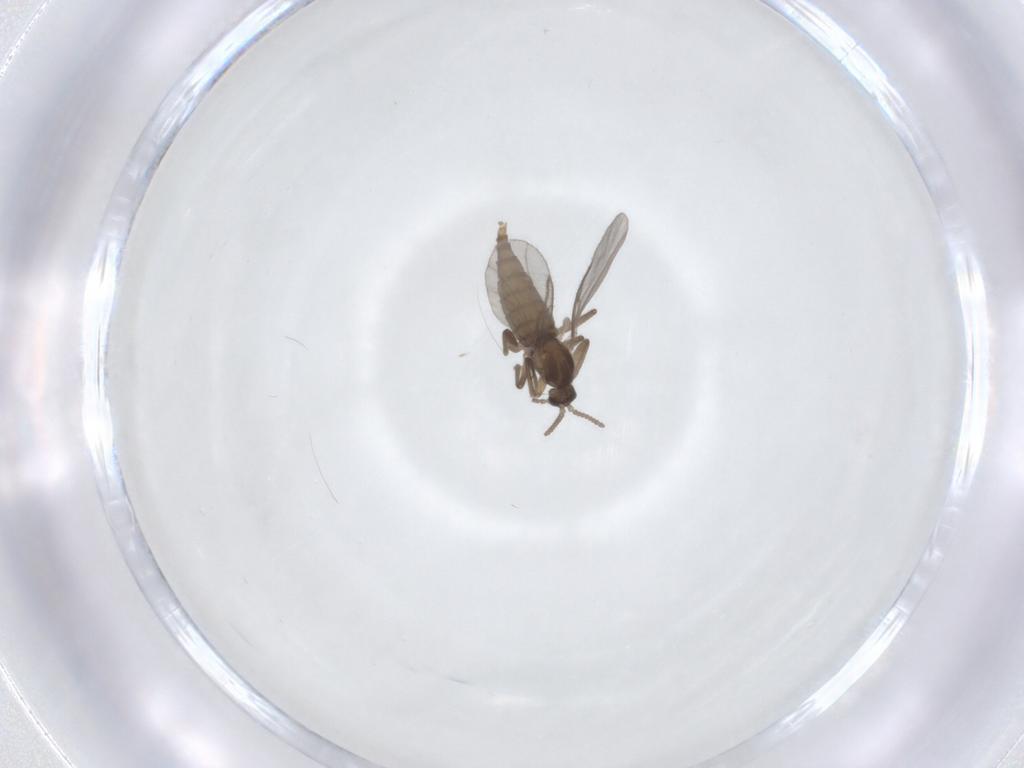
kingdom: Animalia
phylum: Arthropoda
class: Insecta
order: Diptera
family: Cecidomyiidae
